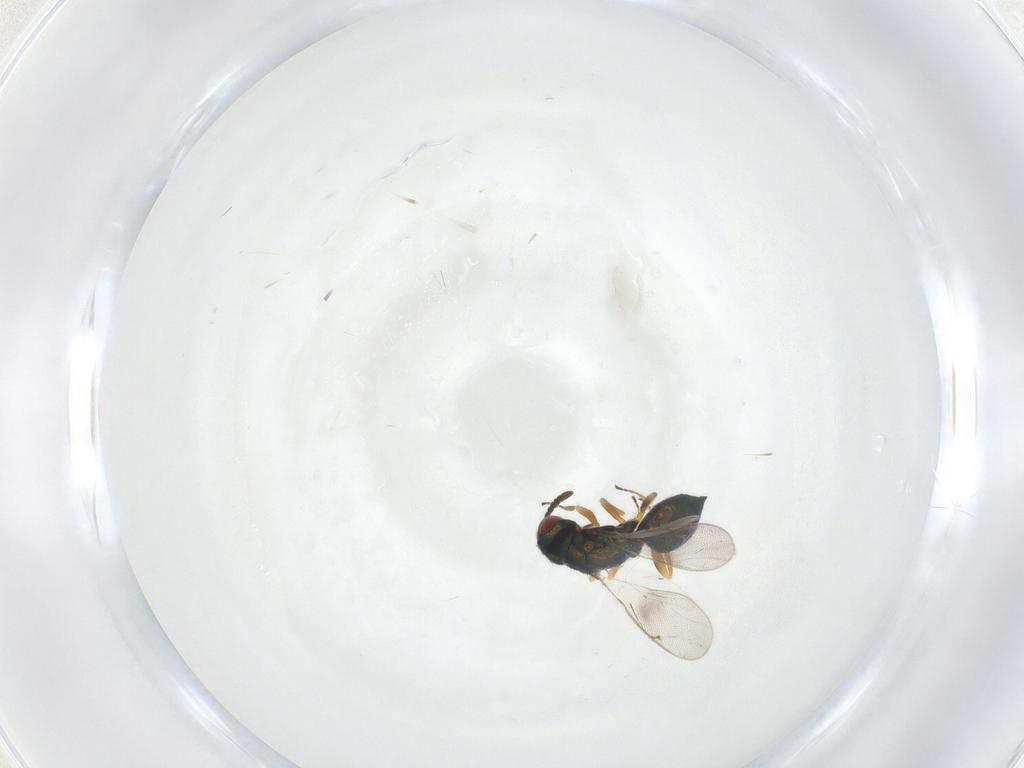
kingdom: Animalia
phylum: Arthropoda
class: Insecta
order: Hymenoptera
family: Tetracampidae
